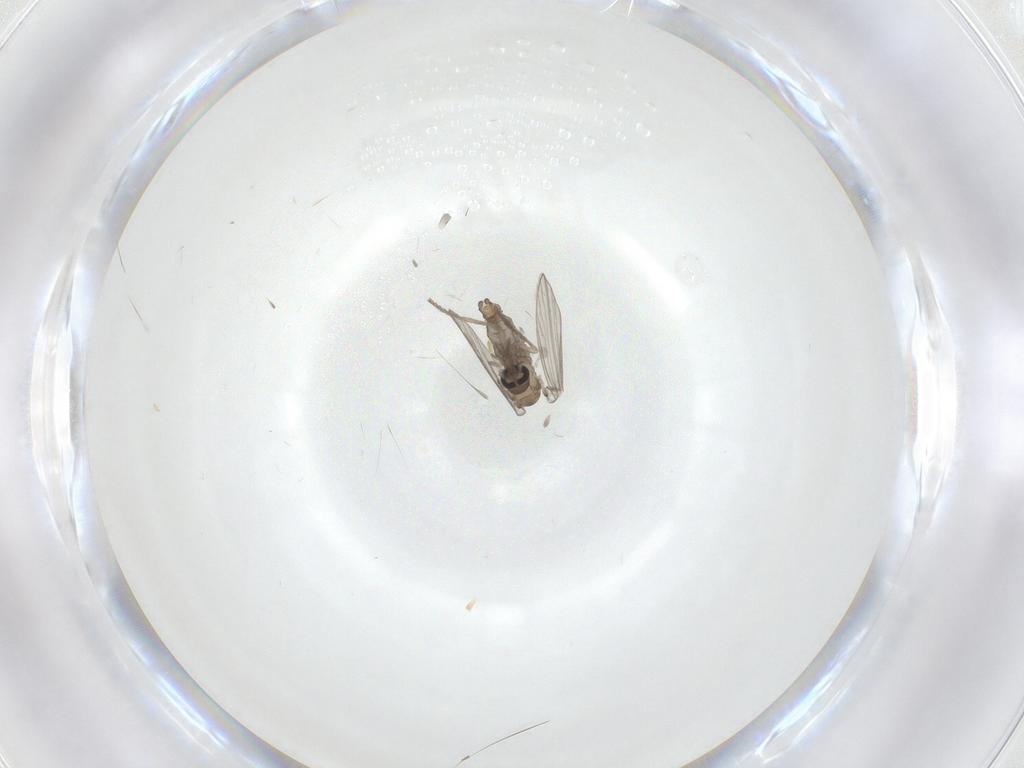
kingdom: Animalia
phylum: Arthropoda
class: Insecta
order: Diptera
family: Psychodidae
